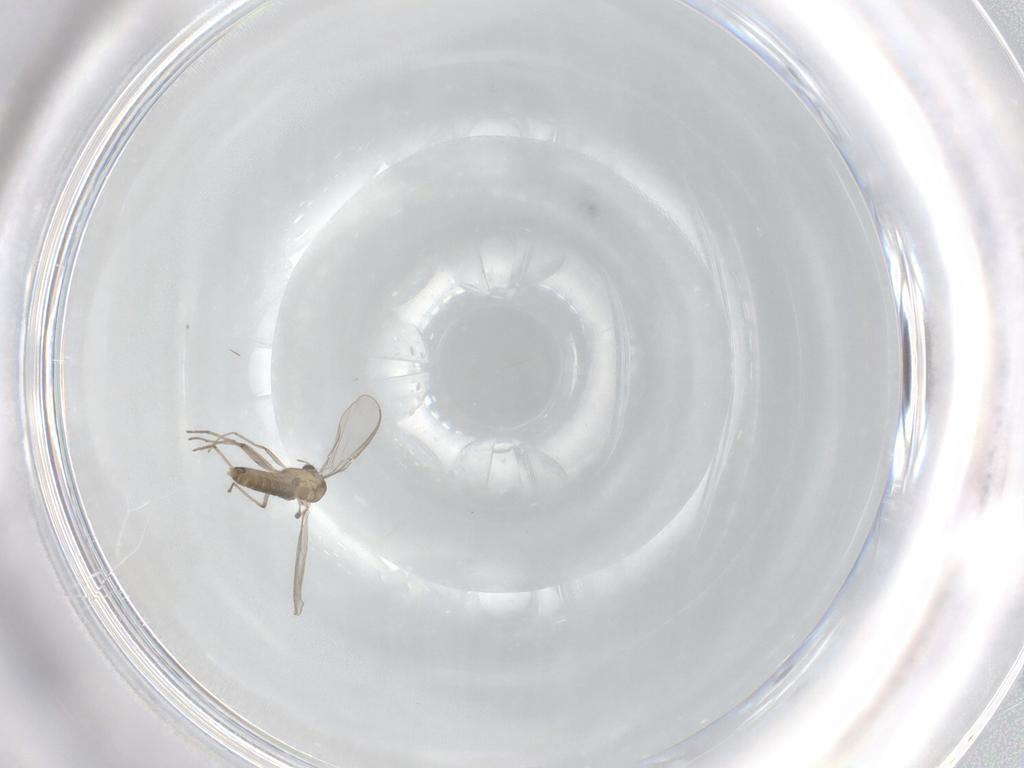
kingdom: Animalia
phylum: Arthropoda
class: Insecta
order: Diptera
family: Chironomidae
